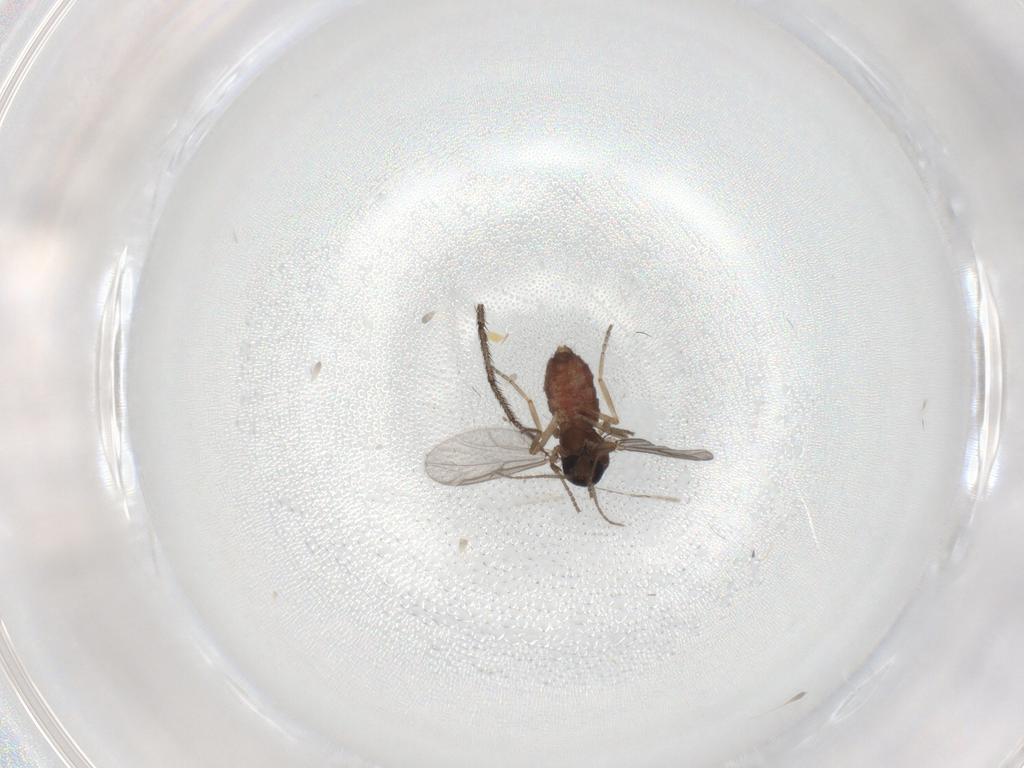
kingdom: Animalia
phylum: Arthropoda
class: Insecta
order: Diptera
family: Ceratopogonidae
